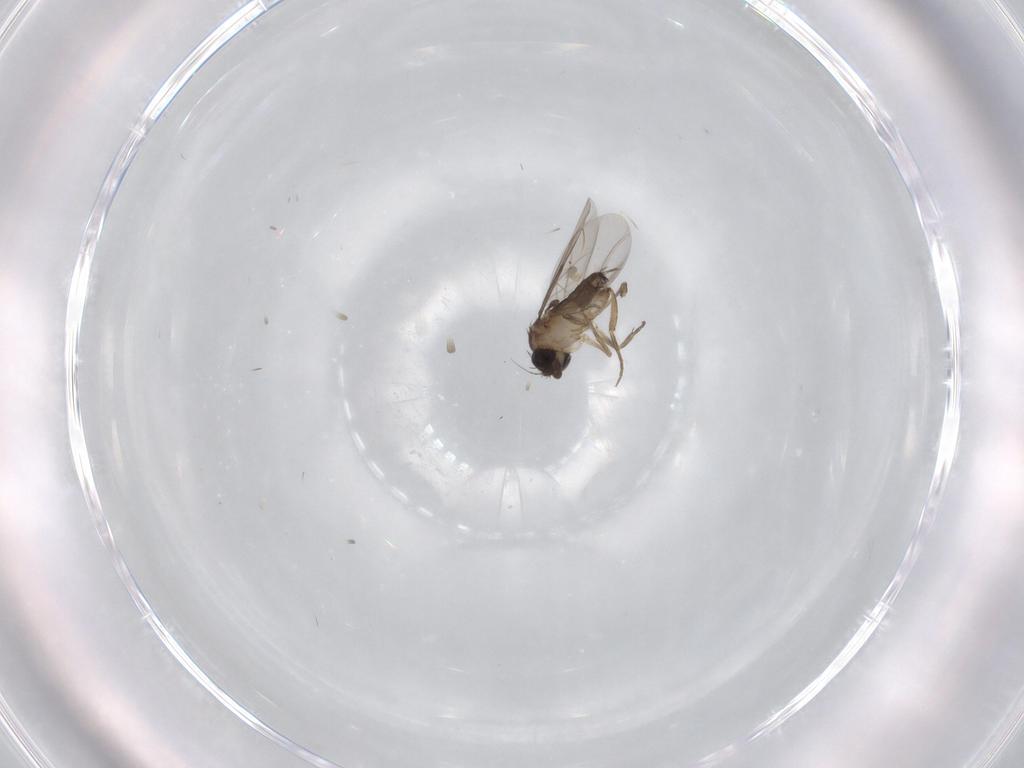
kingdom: Animalia
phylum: Arthropoda
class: Insecta
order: Diptera
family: Phoridae
